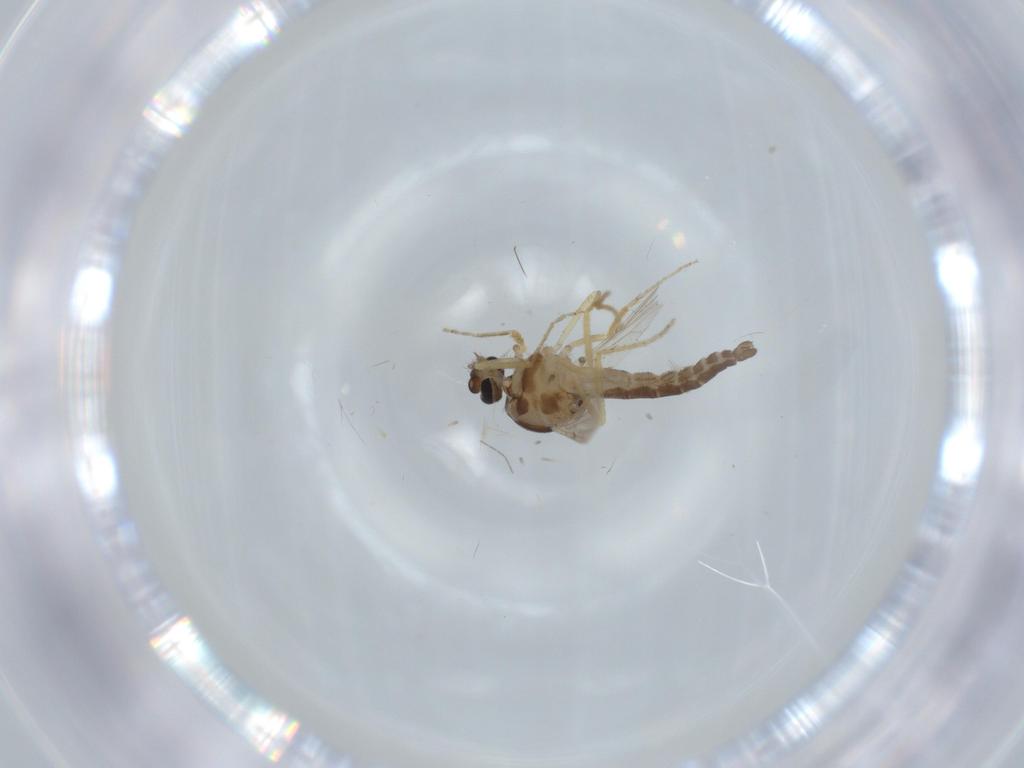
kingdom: Animalia
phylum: Arthropoda
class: Insecta
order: Diptera
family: Ceratopogonidae
